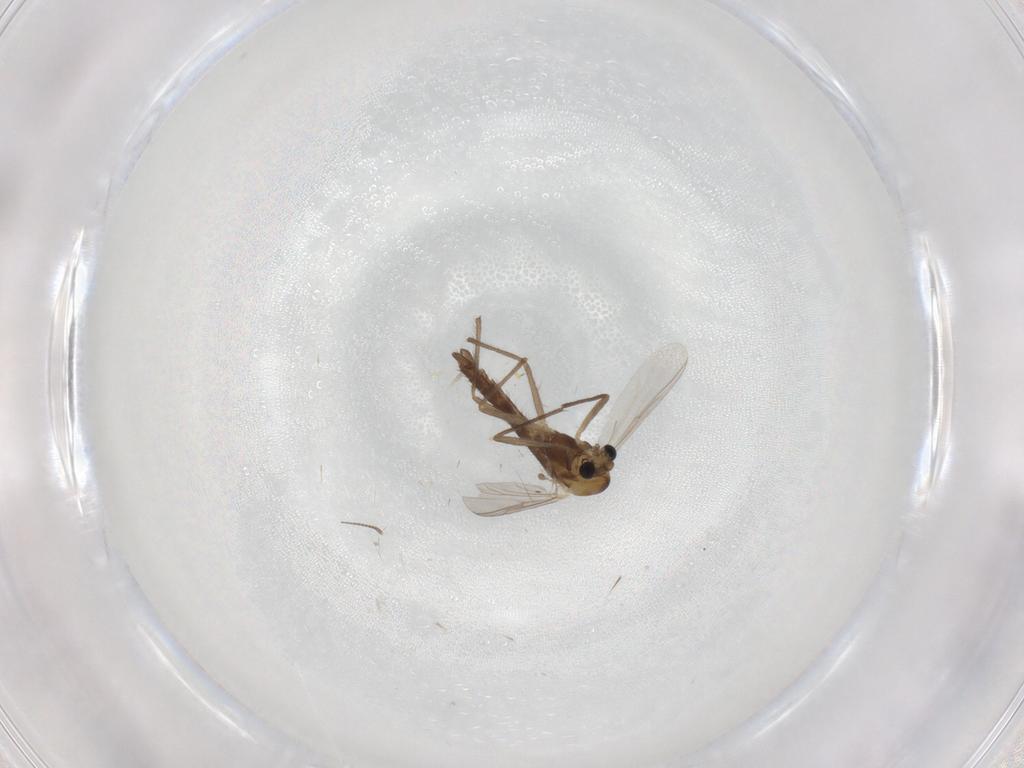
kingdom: Animalia
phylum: Arthropoda
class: Insecta
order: Diptera
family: Chironomidae
